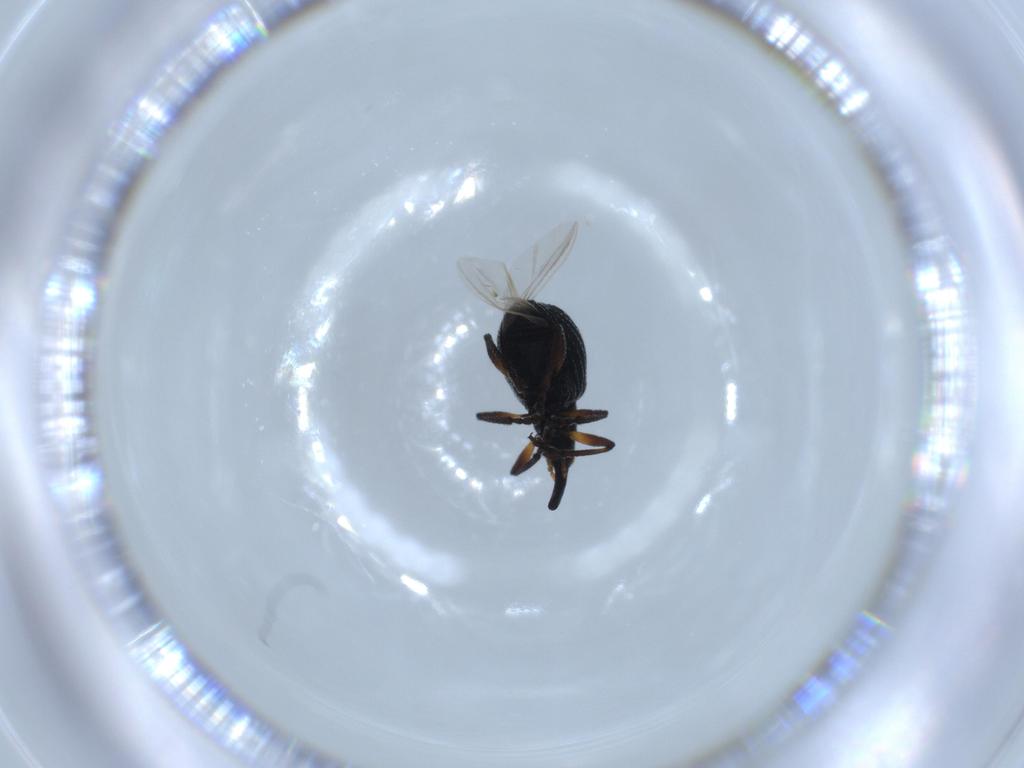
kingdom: Animalia
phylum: Arthropoda
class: Insecta
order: Coleoptera
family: Brentidae
